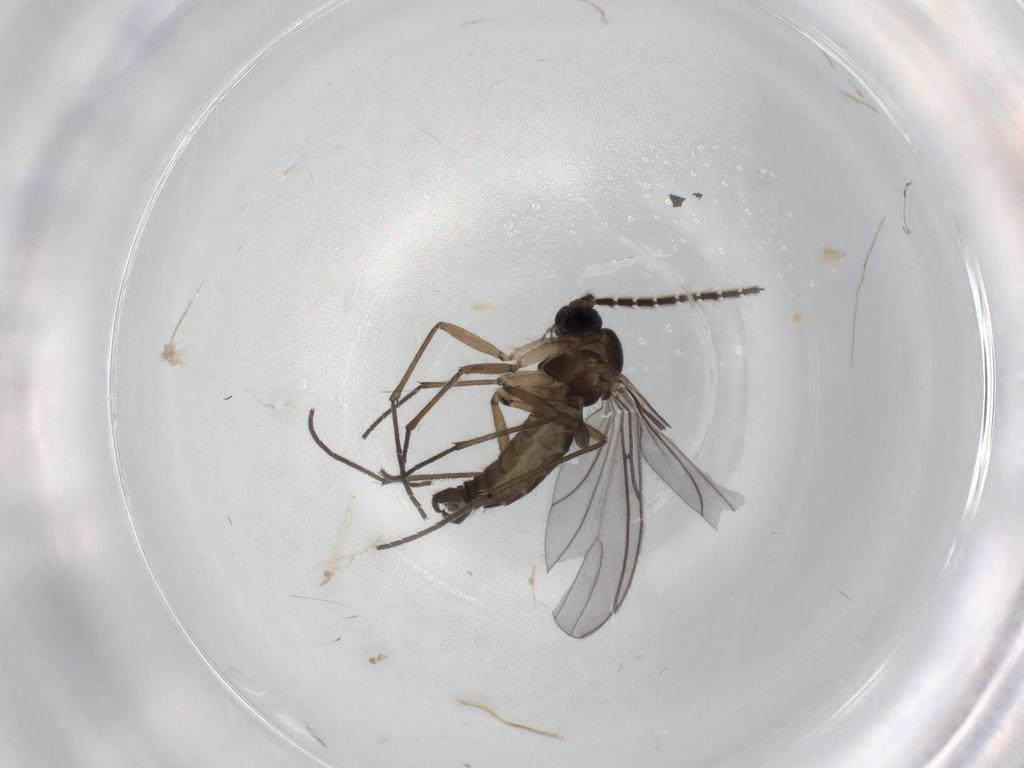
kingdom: Animalia
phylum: Arthropoda
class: Insecta
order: Diptera
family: Sciaridae
